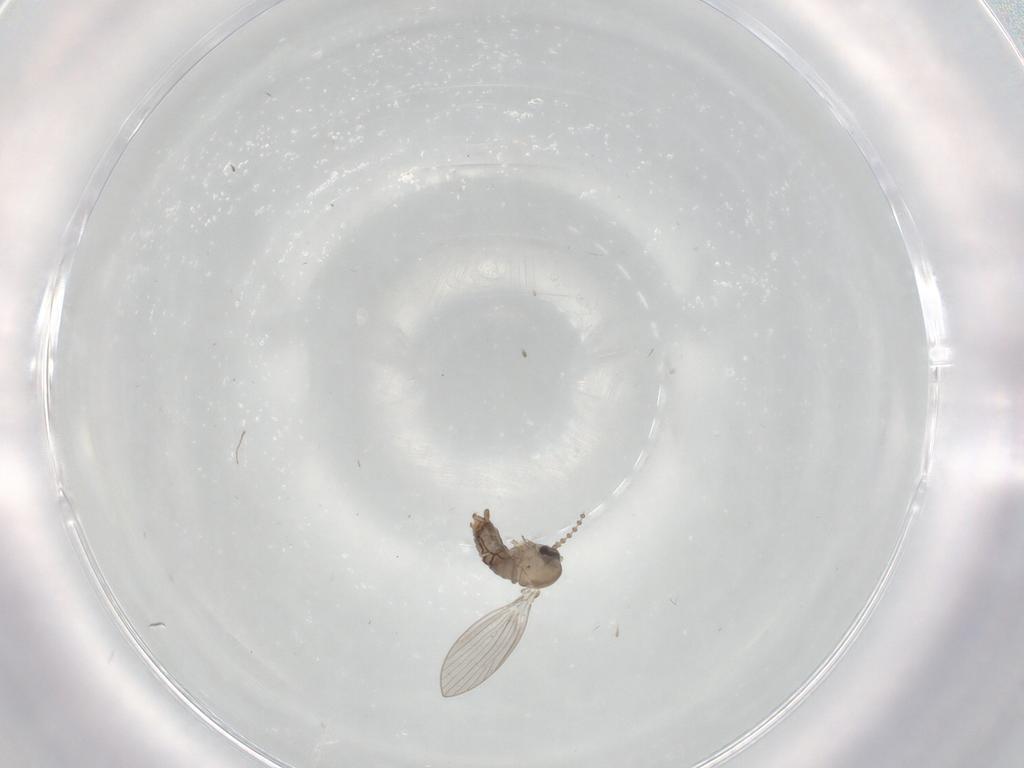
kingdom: Animalia
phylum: Arthropoda
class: Insecta
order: Diptera
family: Psychodidae
